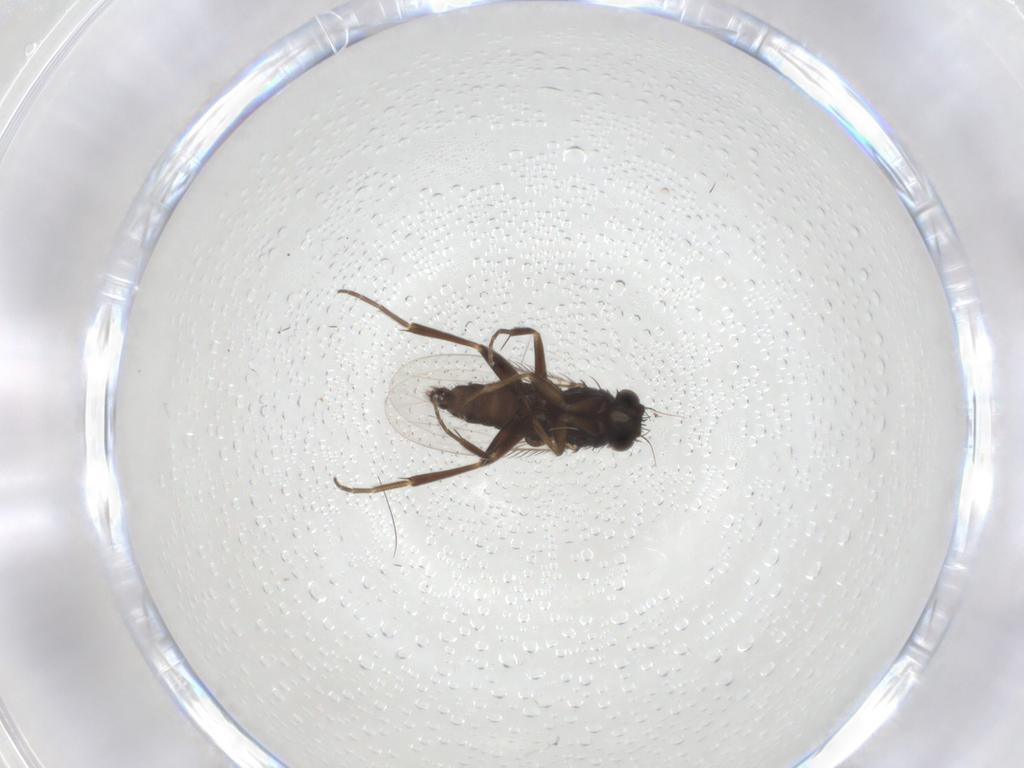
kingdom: Animalia
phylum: Arthropoda
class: Insecta
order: Diptera
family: Phoridae
